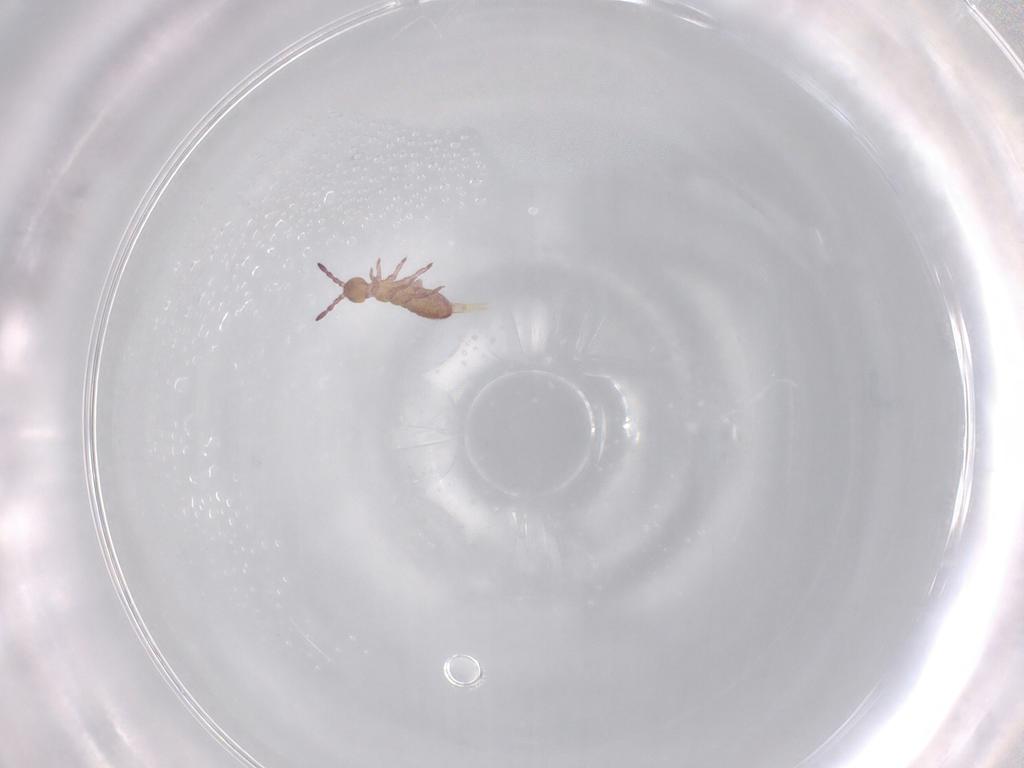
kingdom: Animalia
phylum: Arthropoda
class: Collembola
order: Entomobryomorpha
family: Isotomidae
